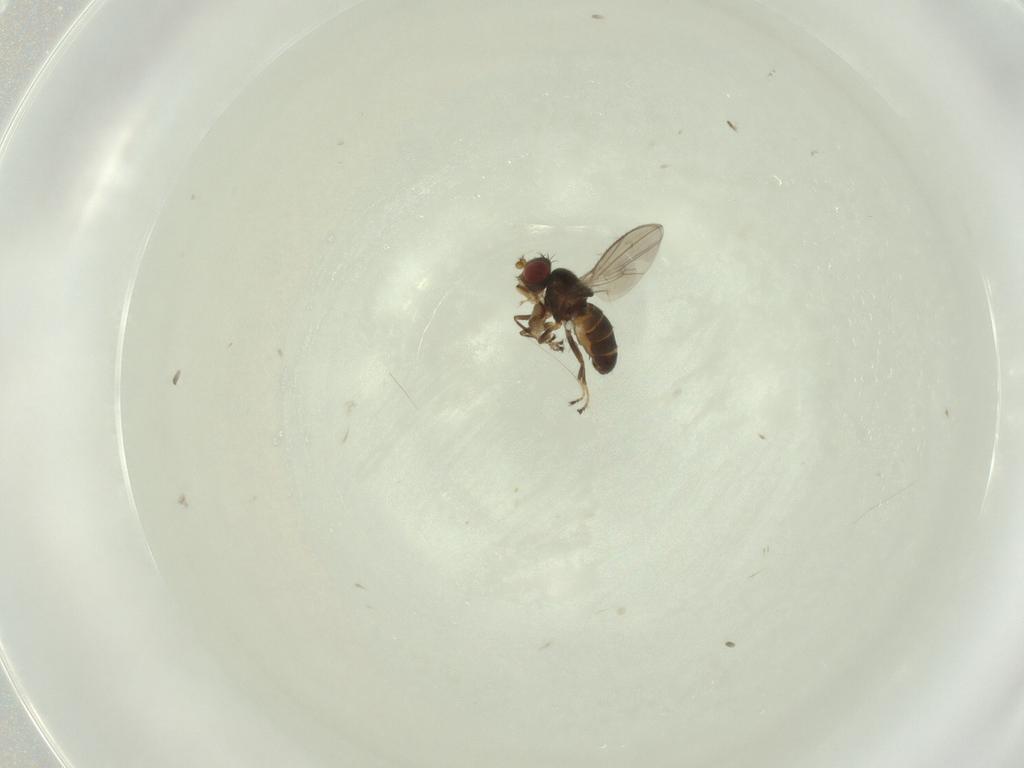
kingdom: Animalia
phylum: Arthropoda
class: Insecta
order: Diptera
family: Ephydridae
